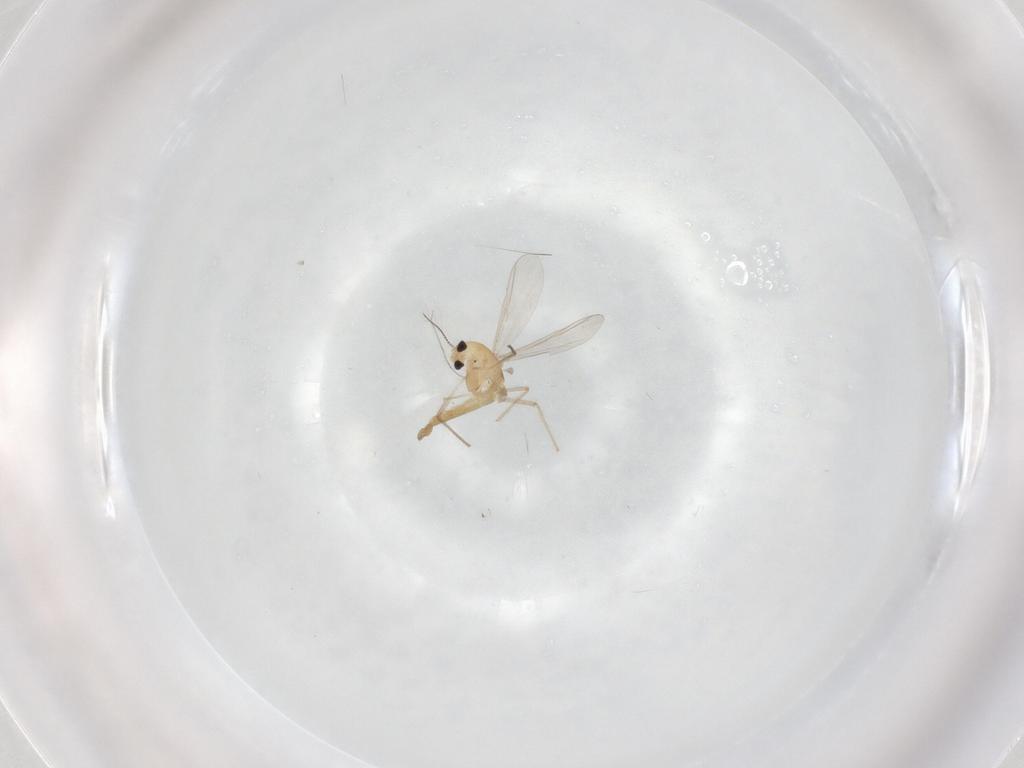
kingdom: Animalia
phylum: Arthropoda
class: Insecta
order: Diptera
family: Chironomidae
